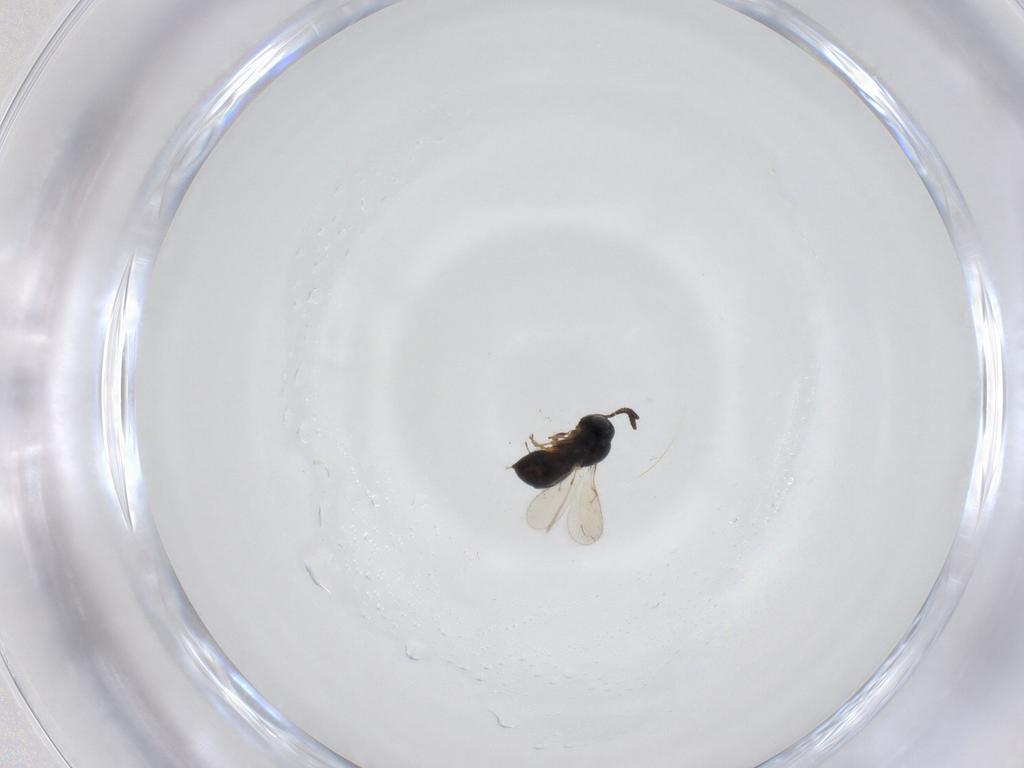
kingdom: Animalia
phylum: Arthropoda
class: Insecta
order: Hymenoptera
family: Scelionidae
